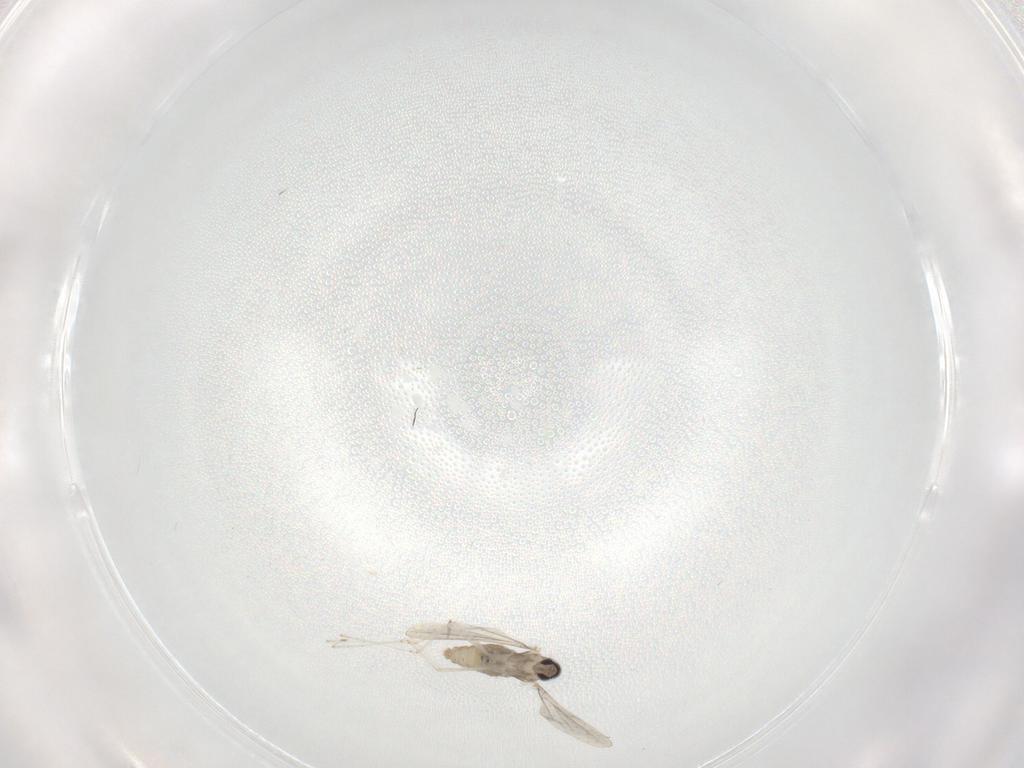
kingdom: Animalia
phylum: Arthropoda
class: Insecta
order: Diptera
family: Cecidomyiidae
